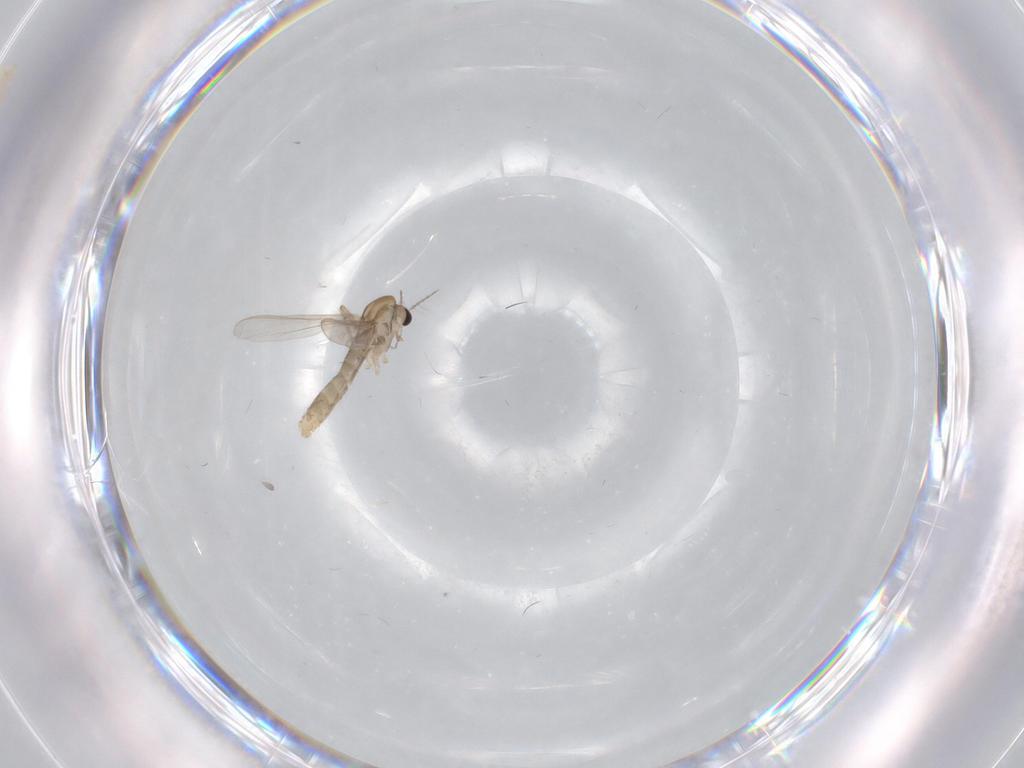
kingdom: Animalia
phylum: Arthropoda
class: Insecta
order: Diptera
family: Chironomidae
